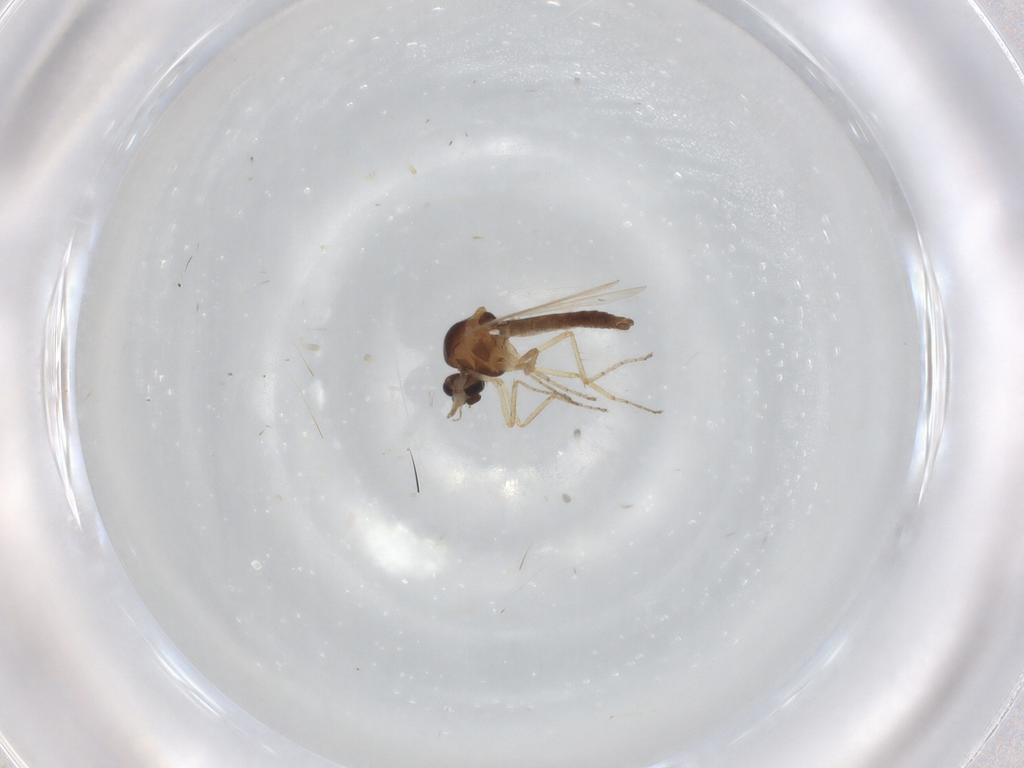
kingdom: Animalia
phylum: Arthropoda
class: Insecta
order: Diptera
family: Ceratopogonidae
